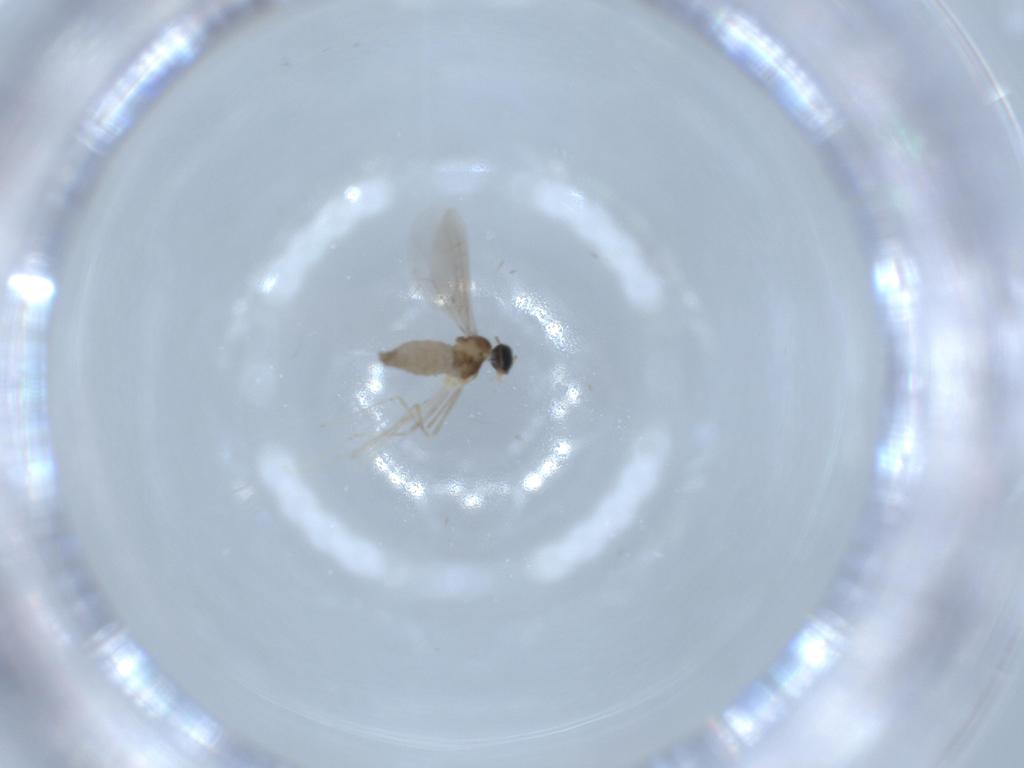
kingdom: Animalia
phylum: Arthropoda
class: Insecta
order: Diptera
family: Cecidomyiidae
